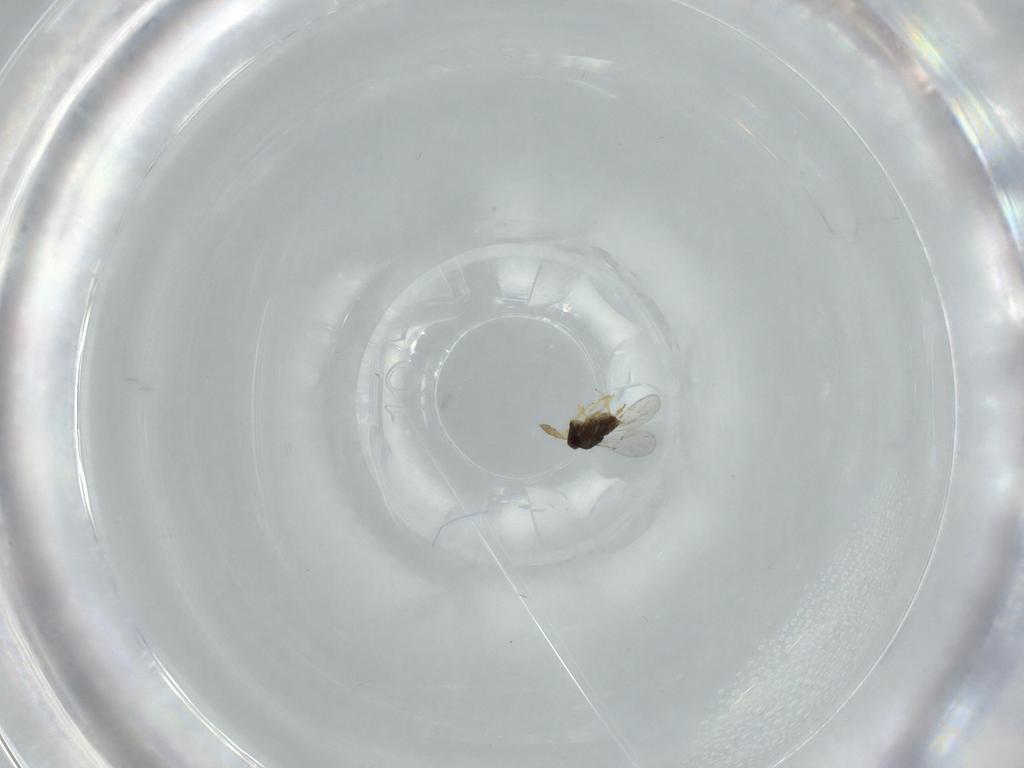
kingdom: Animalia
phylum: Arthropoda
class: Insecta
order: Hymenoptera
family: Encyrtidae
